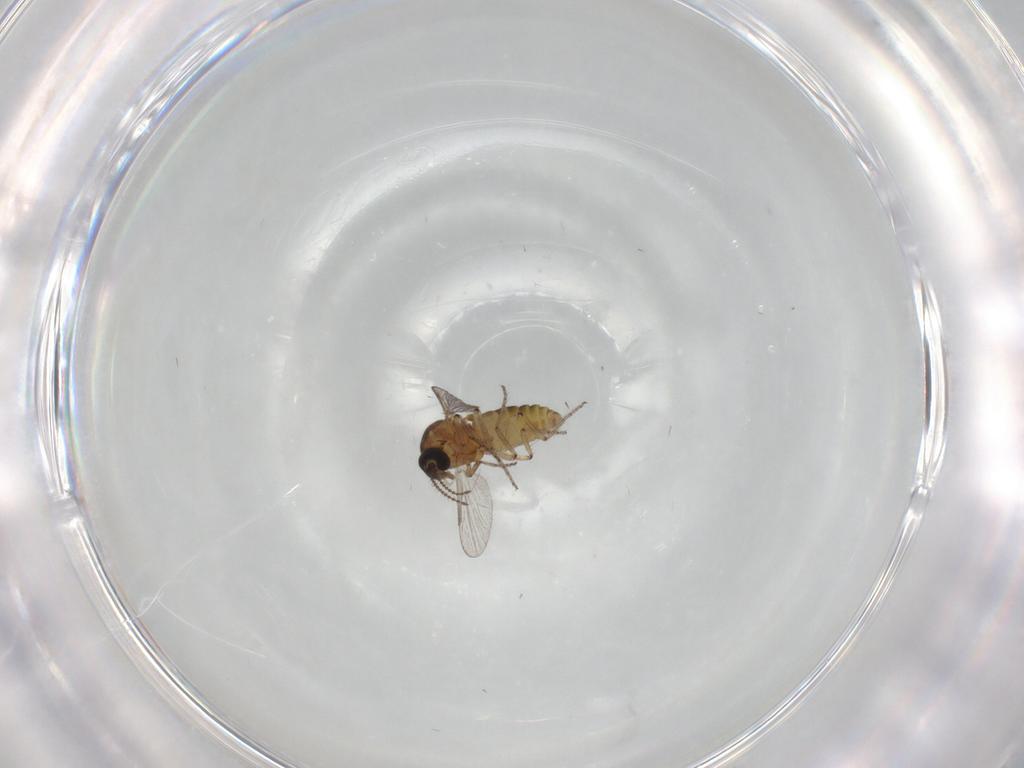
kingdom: Animalia
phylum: Arthropoda
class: Insecta
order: Diptera
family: Ceratopogonidae
